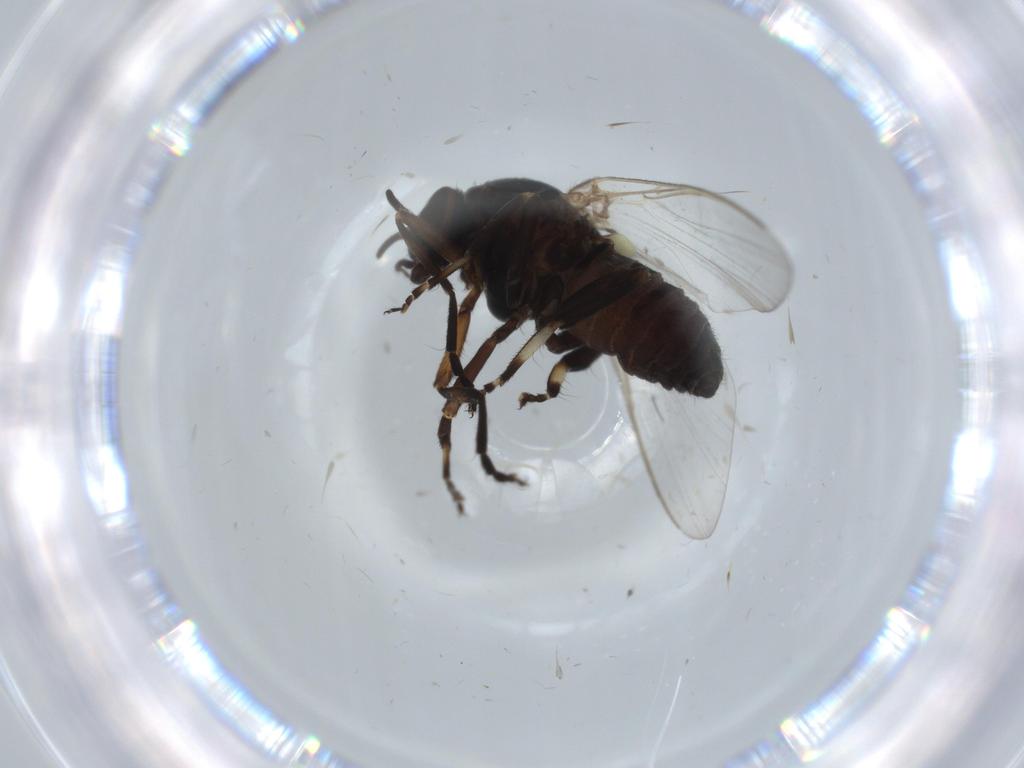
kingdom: Animalia
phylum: Arthropoda
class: Insecta
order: Diptera
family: Cecidomyiidae
